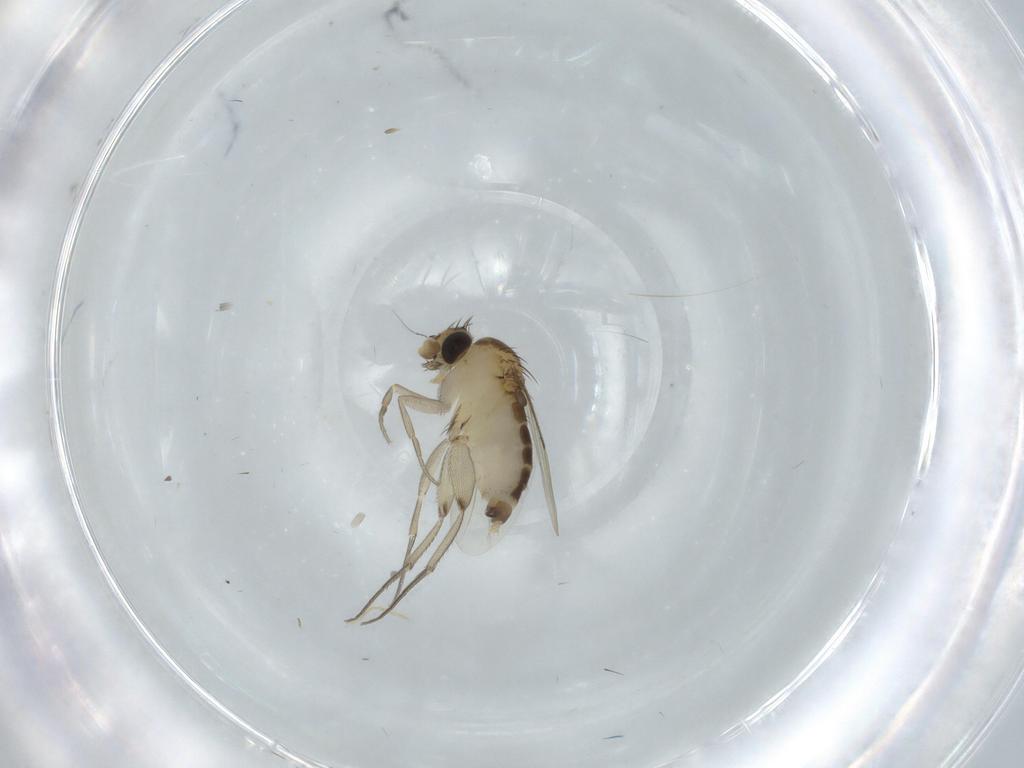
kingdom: Animalia
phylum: Arthropoda
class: Insecta
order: Diptera
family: Phoridae
